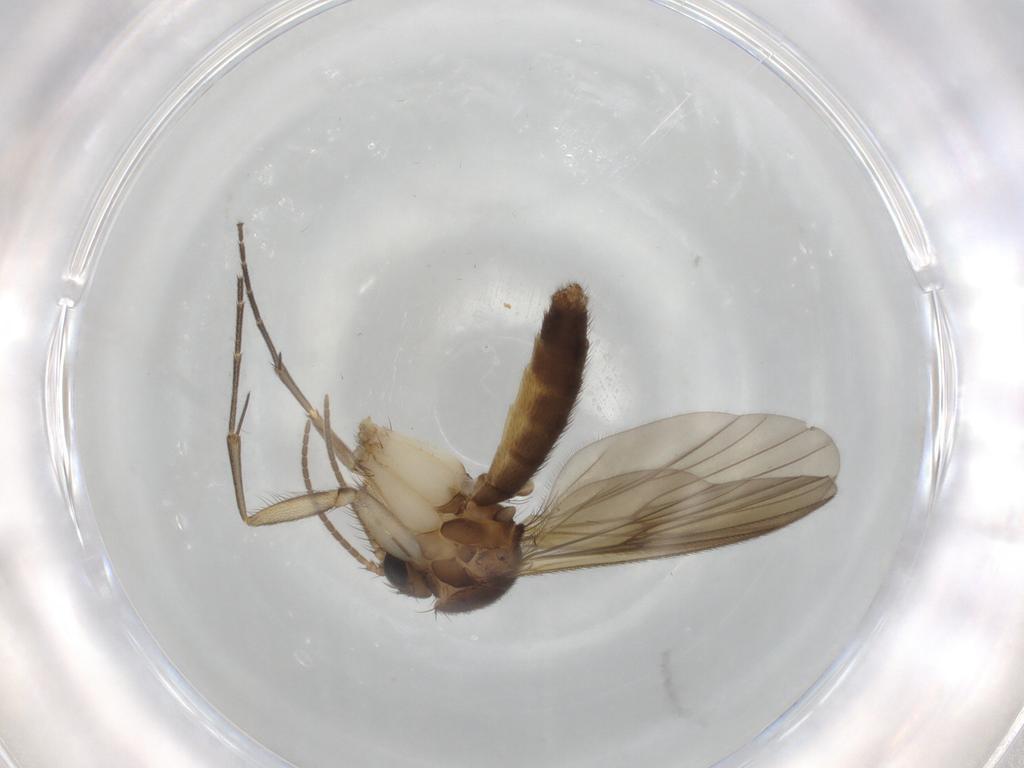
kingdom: Animalia
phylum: Arthropoda
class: Insecta
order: Diptera
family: Mycetophilidae
